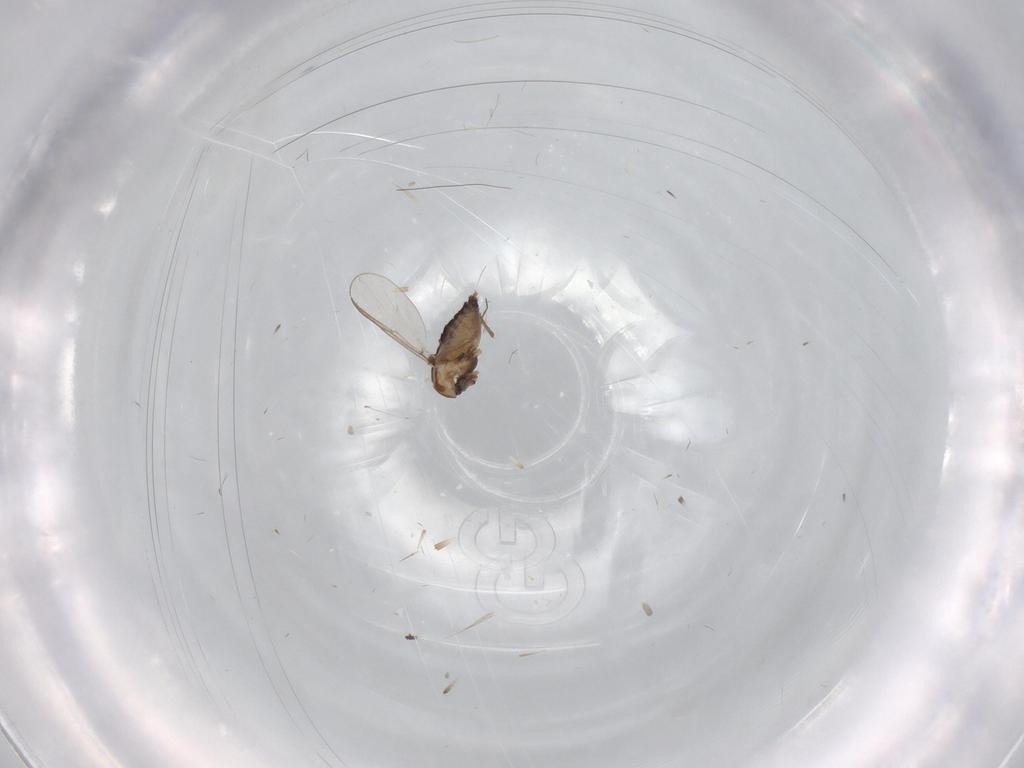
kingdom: Animalia
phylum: Arthropoda
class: Insecta
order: Diptera
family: Chironomidae
